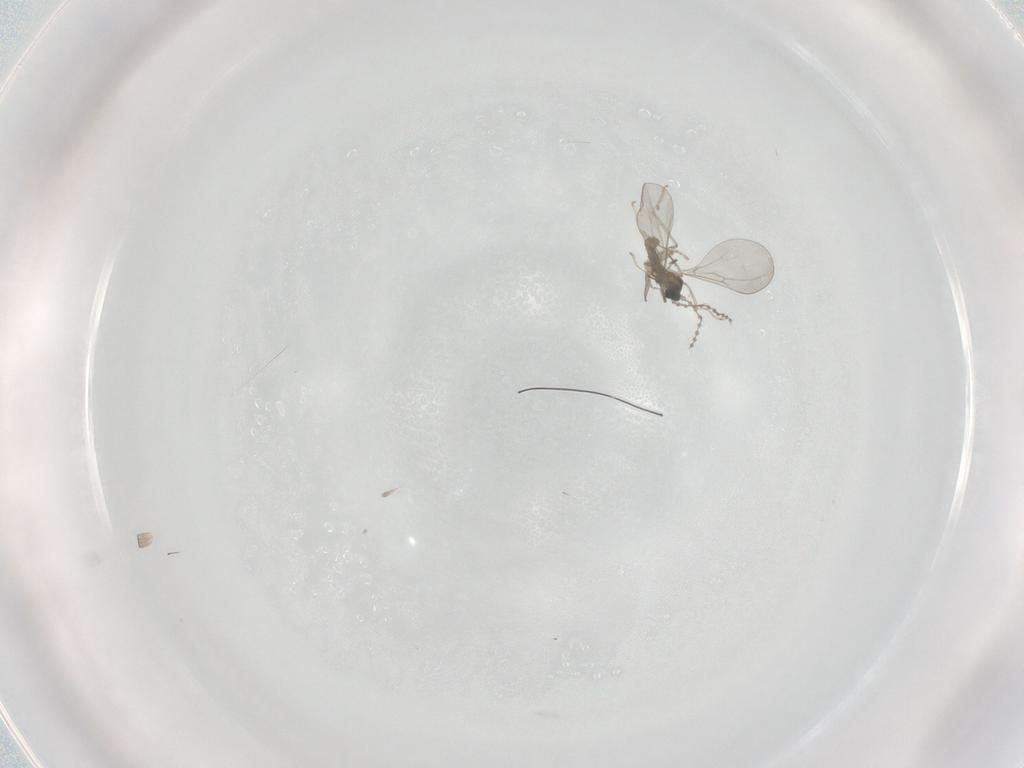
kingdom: Animalia
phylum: Arthropoda
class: Insecta
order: Diptera
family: Cecidomyiidae
